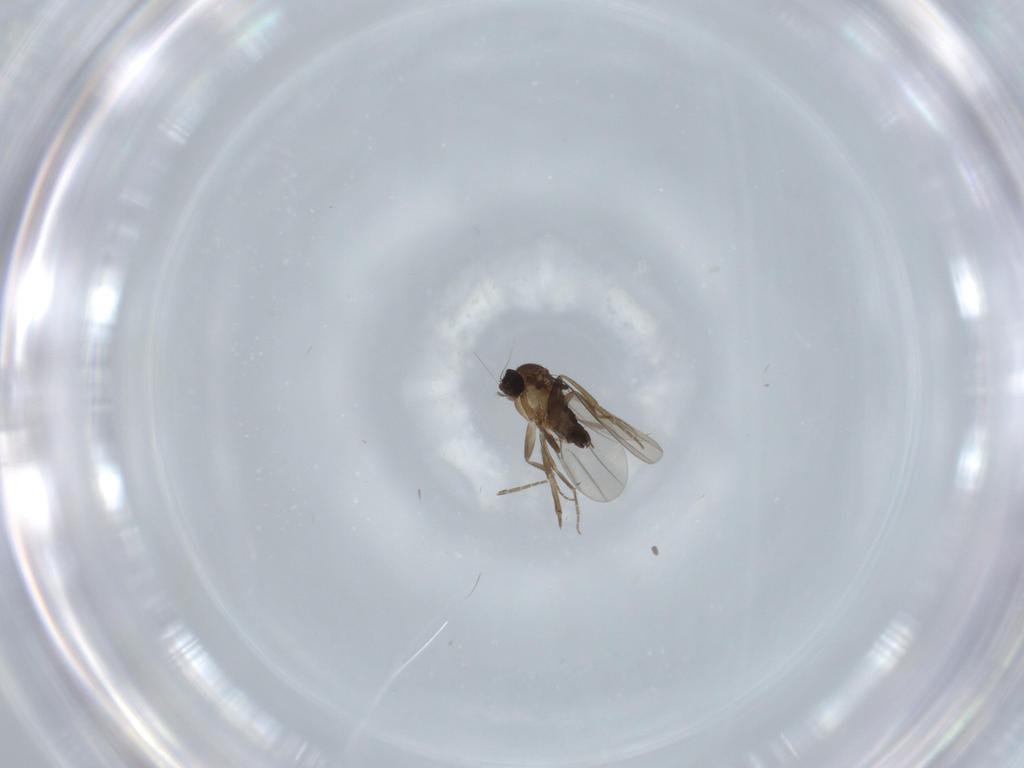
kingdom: Animalia
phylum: Arthropoda
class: Insecta
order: Diptera
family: Phoridae
